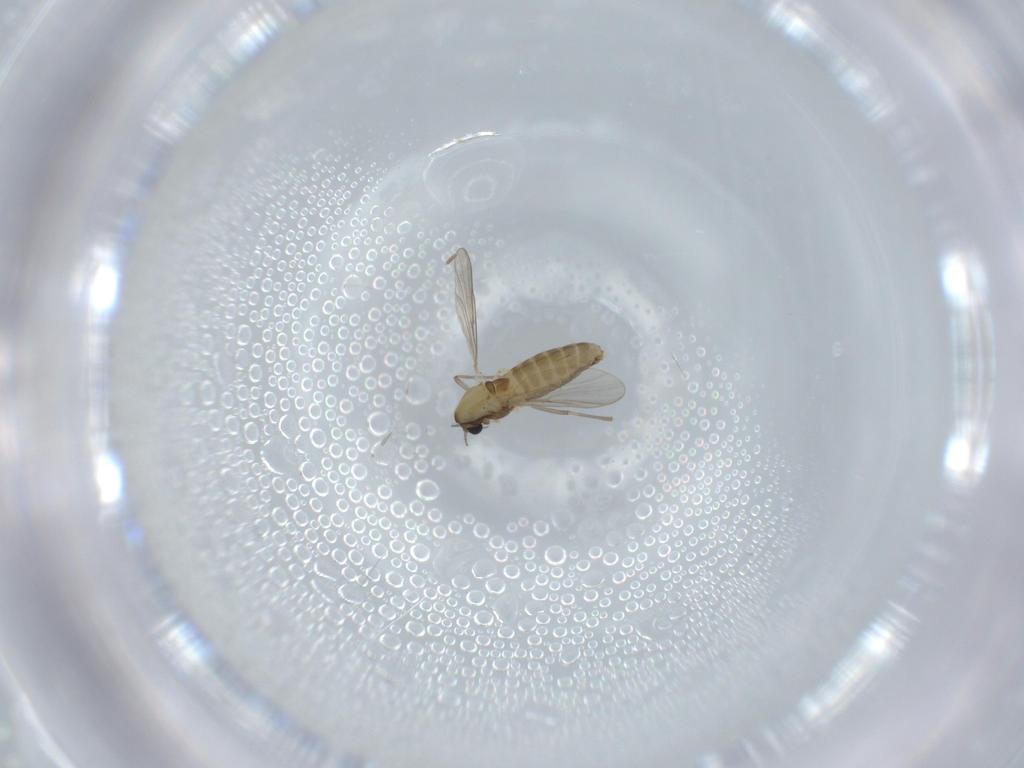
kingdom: Animalia
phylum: Arthropoda
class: Insecta
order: Diptera
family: Chironomidae
